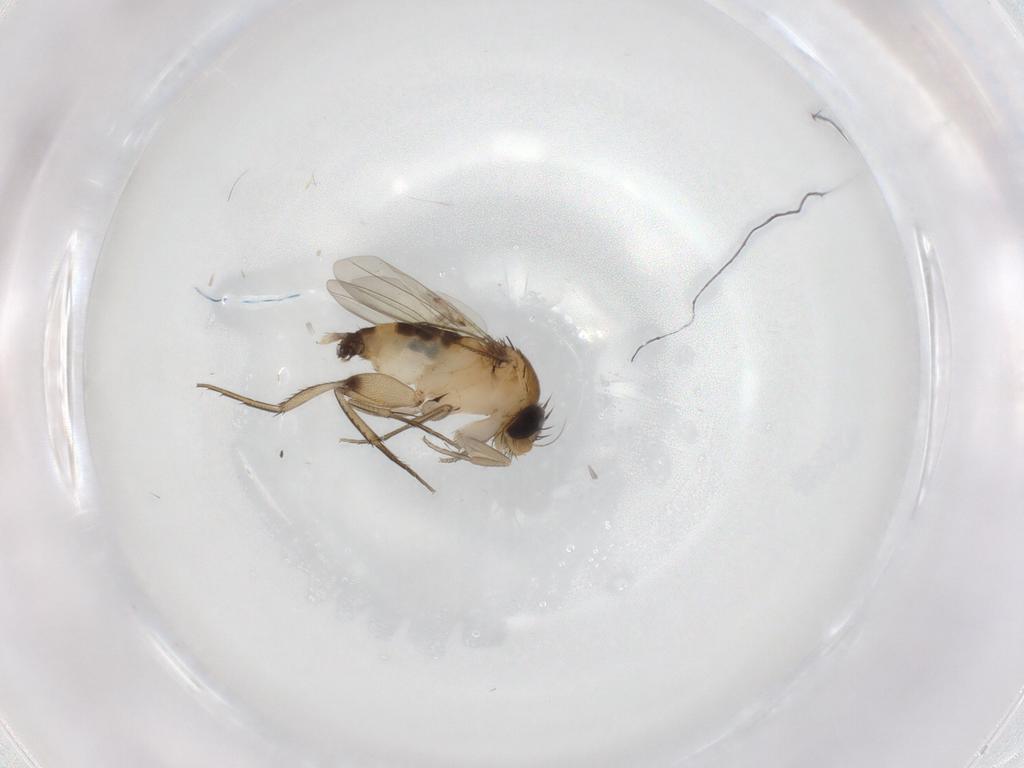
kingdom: Animalia
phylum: Arthropoda
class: Insecta
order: Diptera
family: Phoridae
